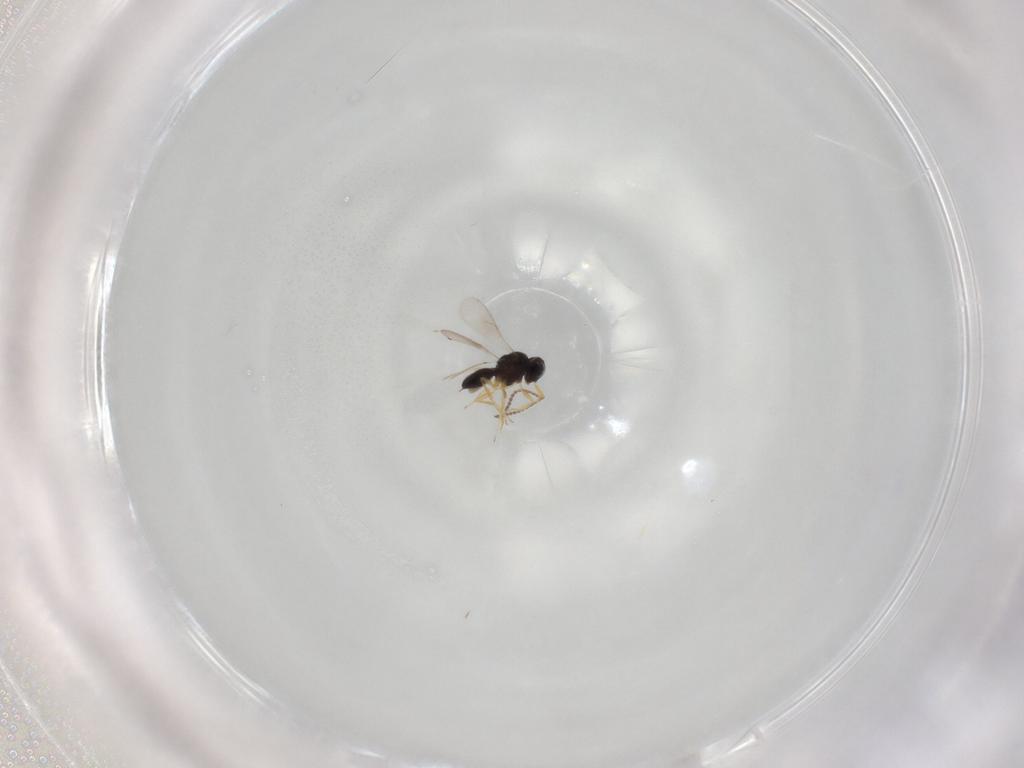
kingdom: Animalia
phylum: Arthropoda
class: Insecta
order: Hymenoptera
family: Scelionidae
